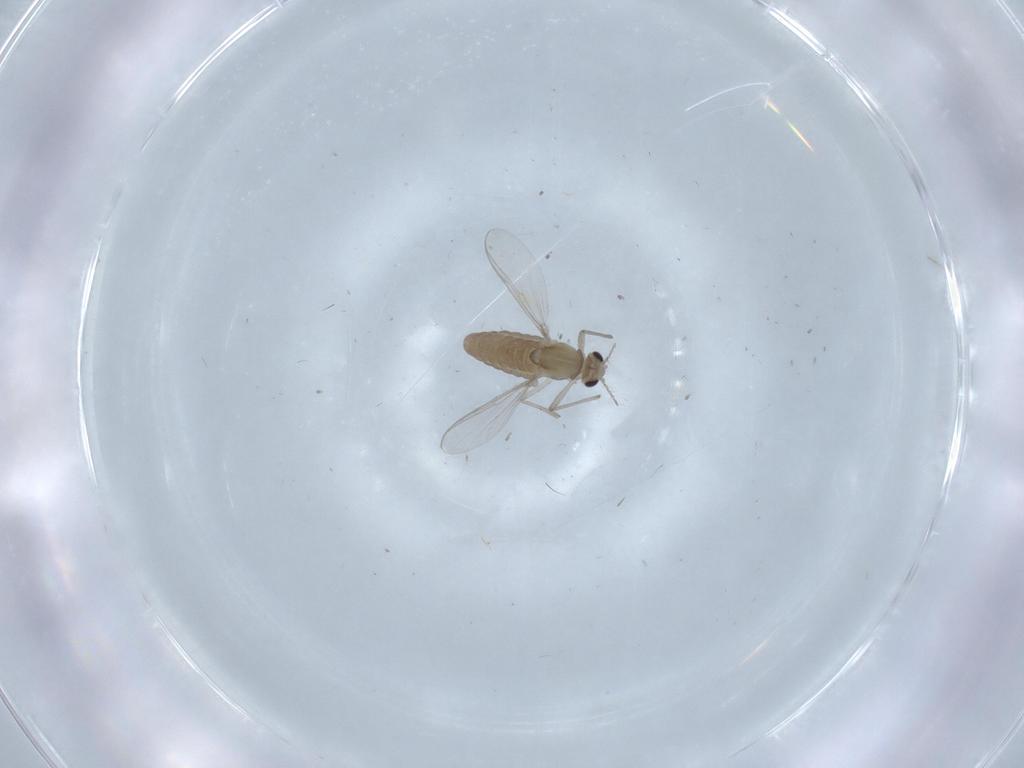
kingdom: Animalia
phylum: Arthropoda
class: Insecta
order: Diptera
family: Chironomidae
